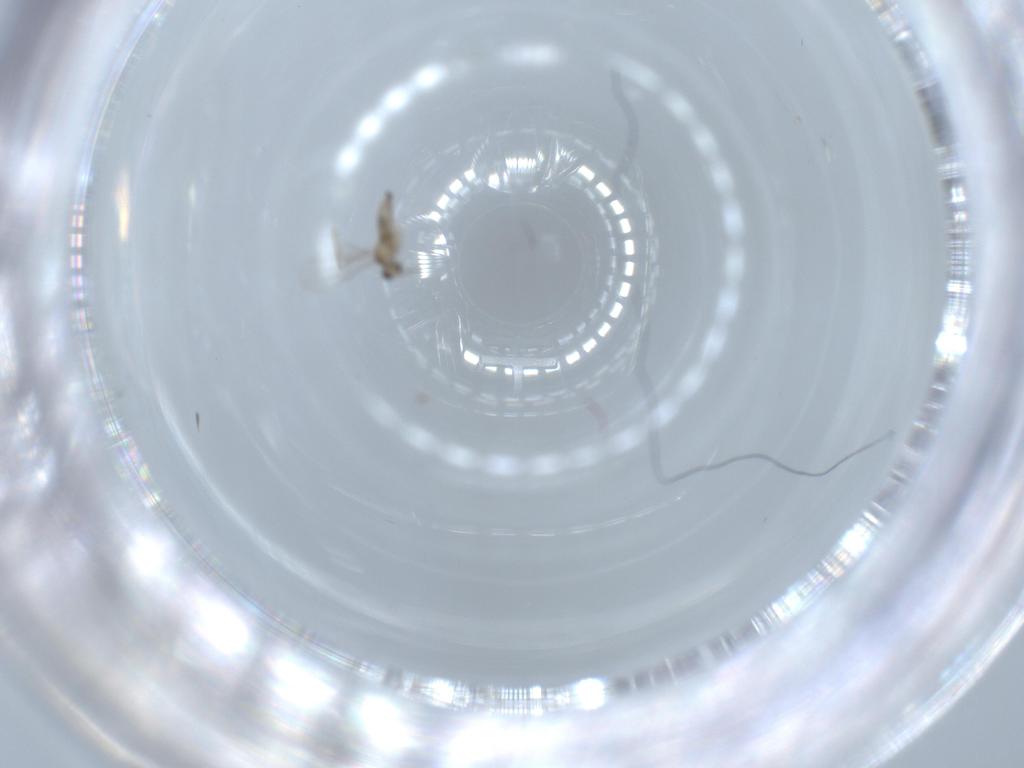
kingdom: Animalia
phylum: Arthropoda
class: Insecta
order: Diptera
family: Cecidomyiidae
